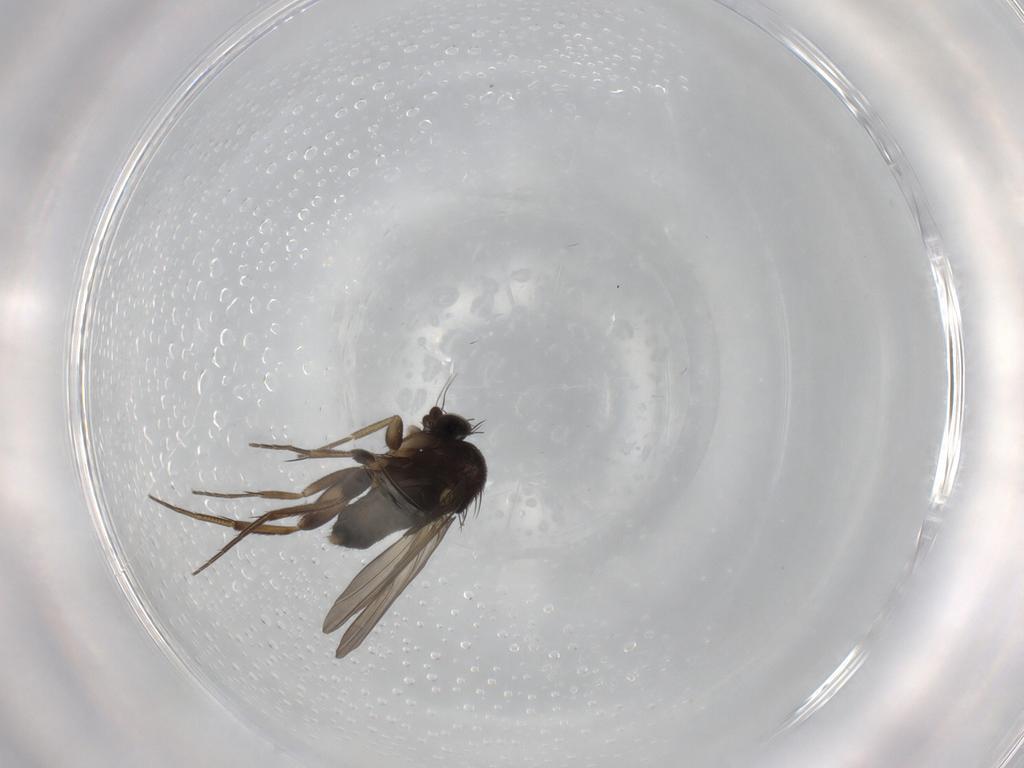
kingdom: Animalia
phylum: Arthropoda
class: Insecta
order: Diptera
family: Phoridae
